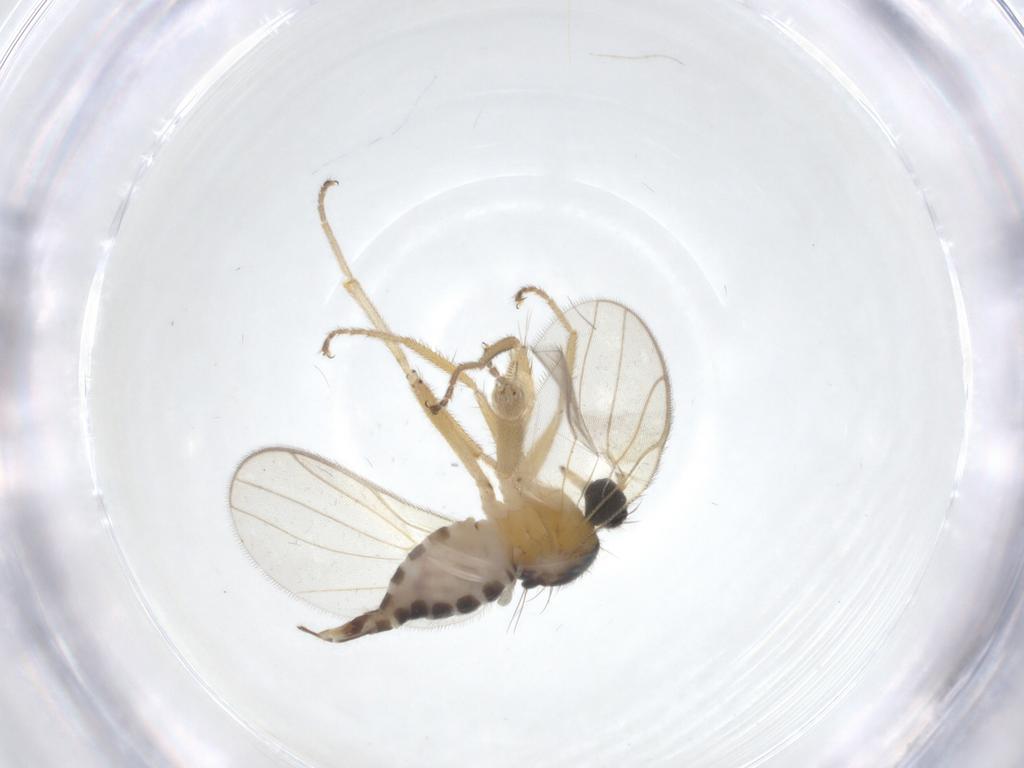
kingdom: Animalia
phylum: Arthropoda
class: Insecta
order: Diptera
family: Hybotidae
